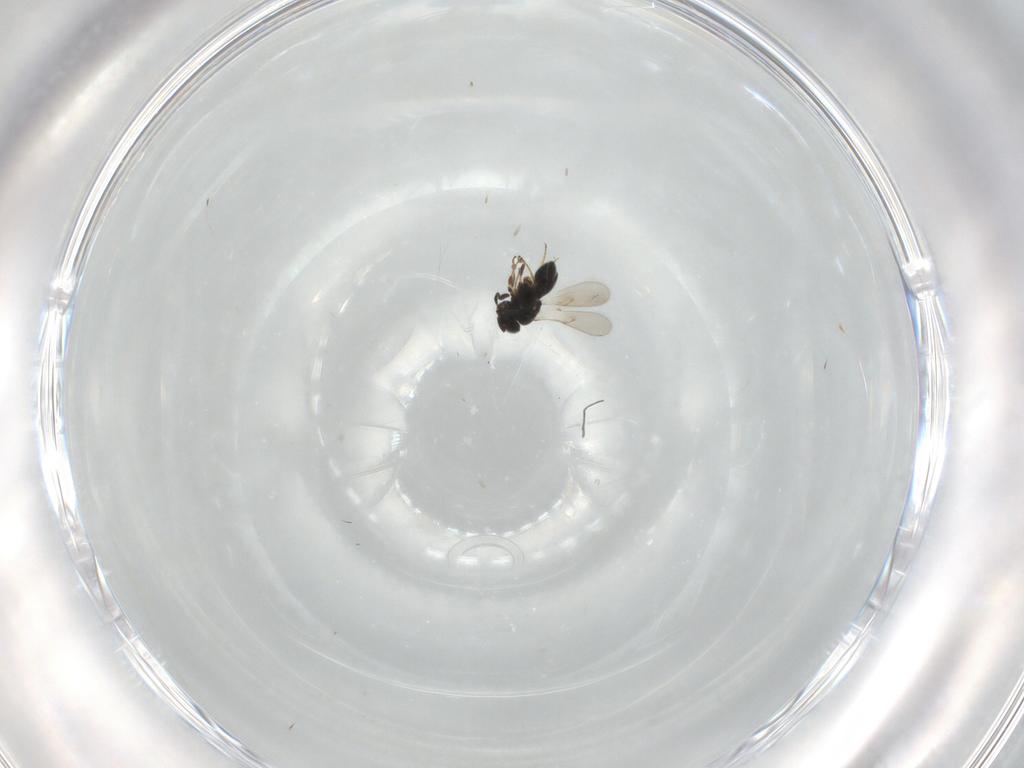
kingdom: Animalia
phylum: Arthropoda
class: Insecta
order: Hymenoptera
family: Scelionidae
